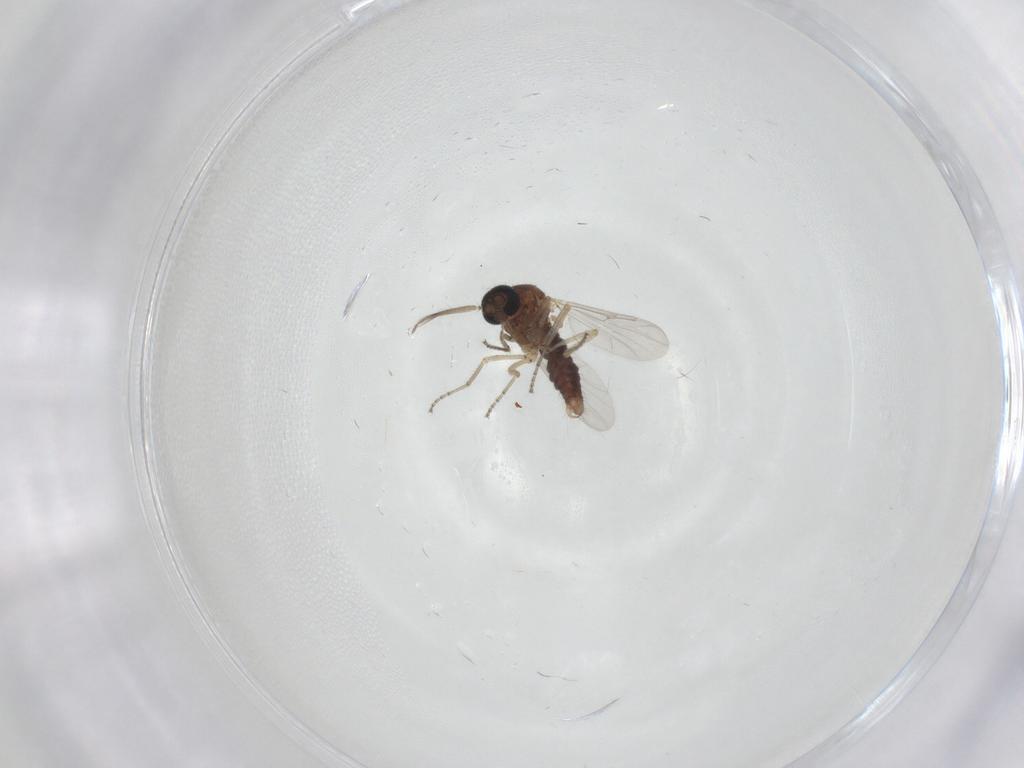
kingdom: Animalia
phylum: Arthropoda
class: Insecta
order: Diptera
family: Ceratopogonidae
